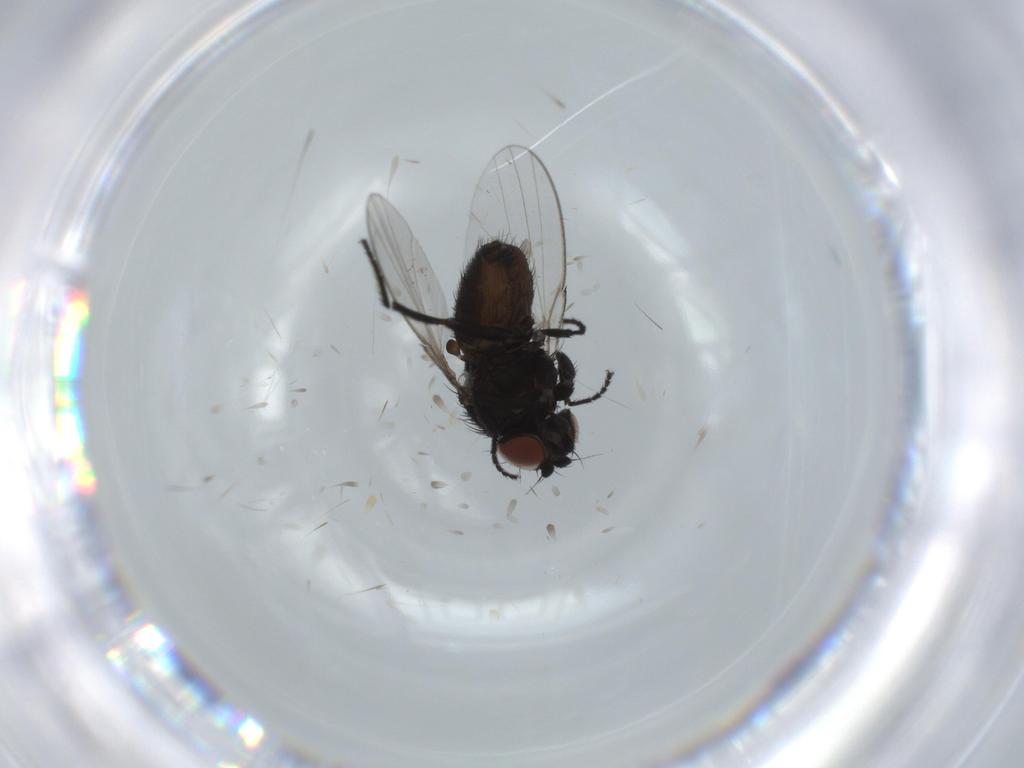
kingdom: Animalia
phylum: Arthropoda
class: Insecta
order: Diptera
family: Milichiidae
